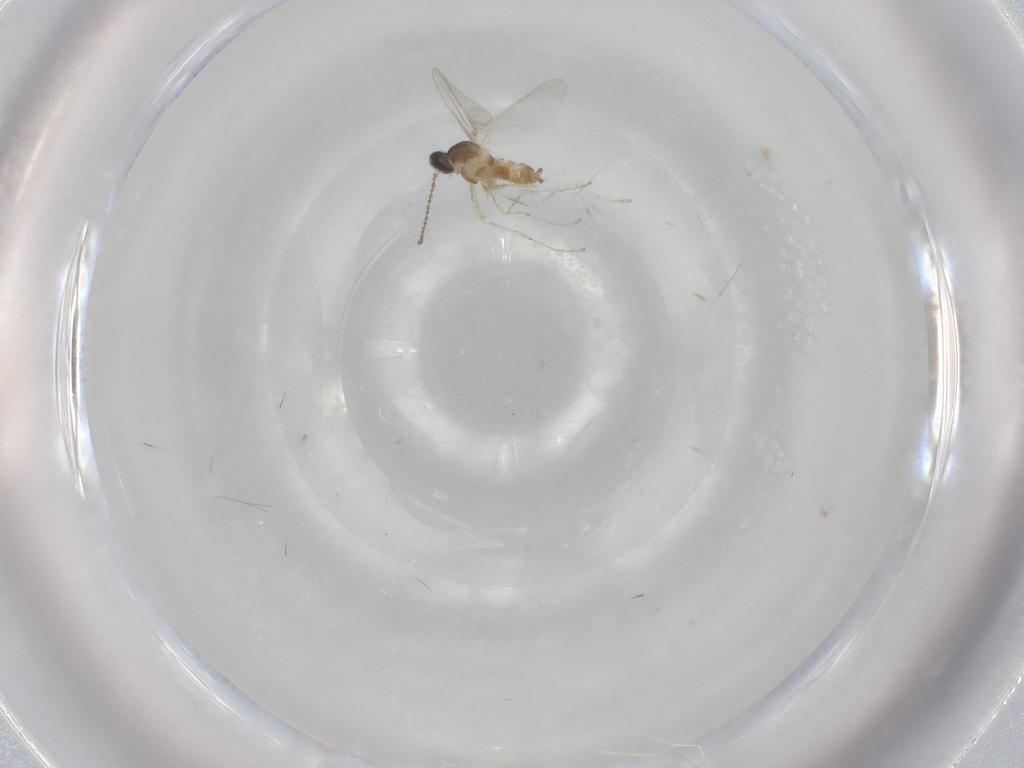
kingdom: Animalia
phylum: Arthropoda
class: Insecta
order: Diptera
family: Cecidomyiidae
